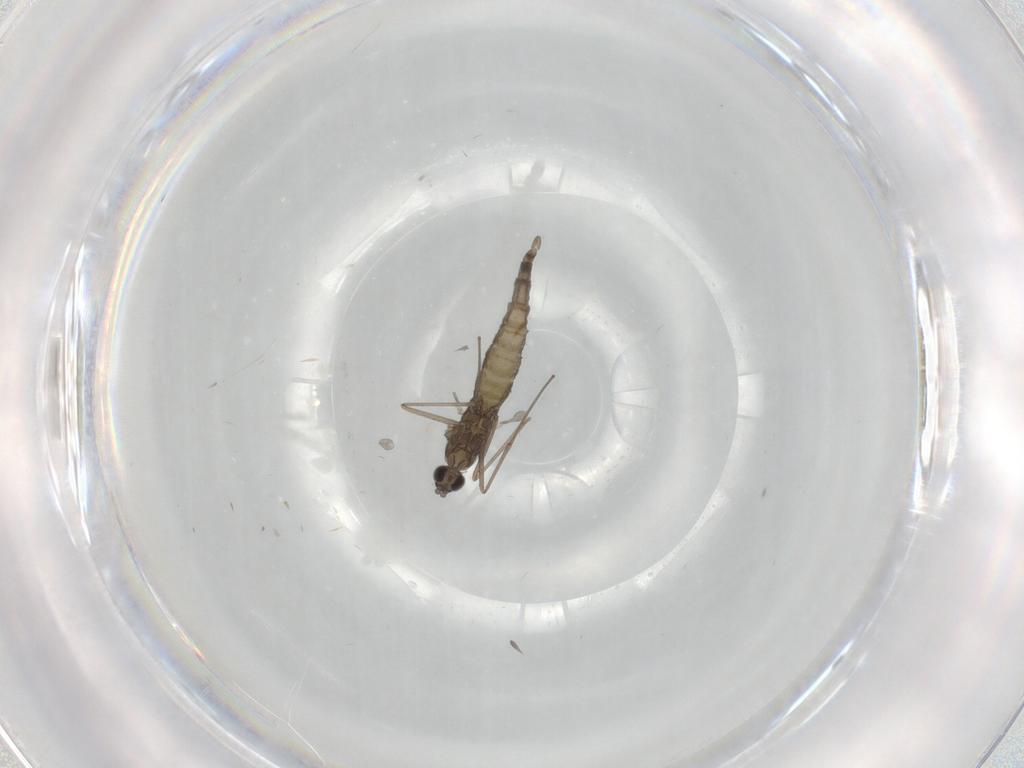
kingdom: Animalia
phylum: Arthropoda
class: Insecta
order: Diptera
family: Cecidomyiidae
